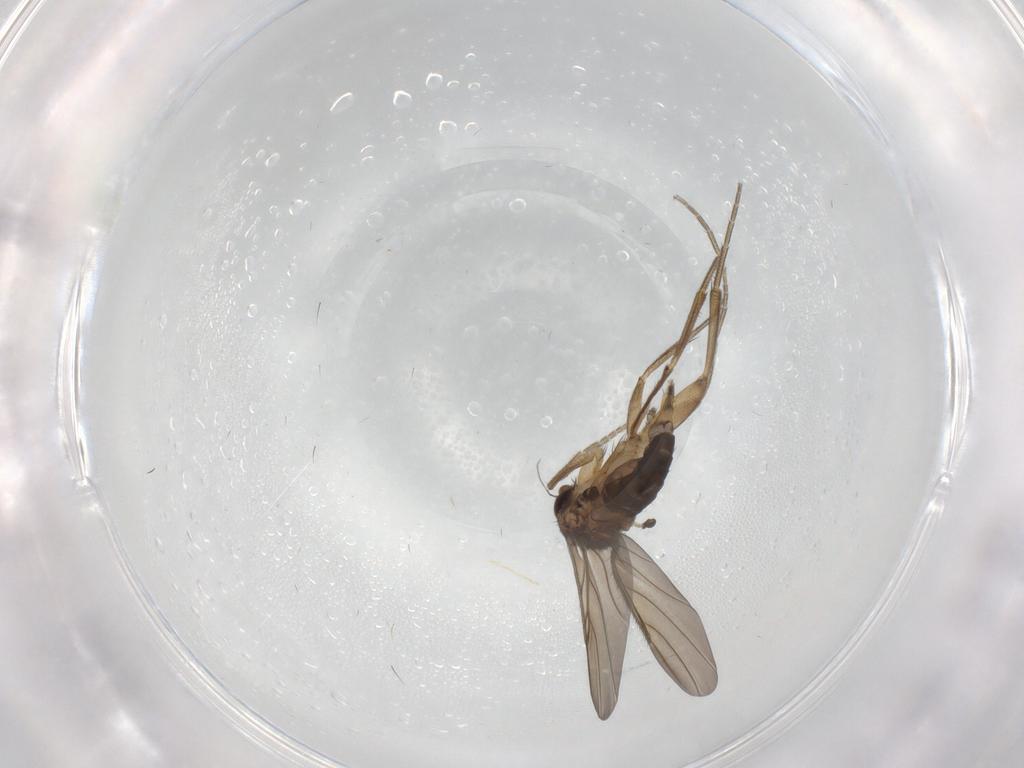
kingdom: Animalia
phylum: Arthropoda
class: Insecta
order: Diptera
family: Phoridae
